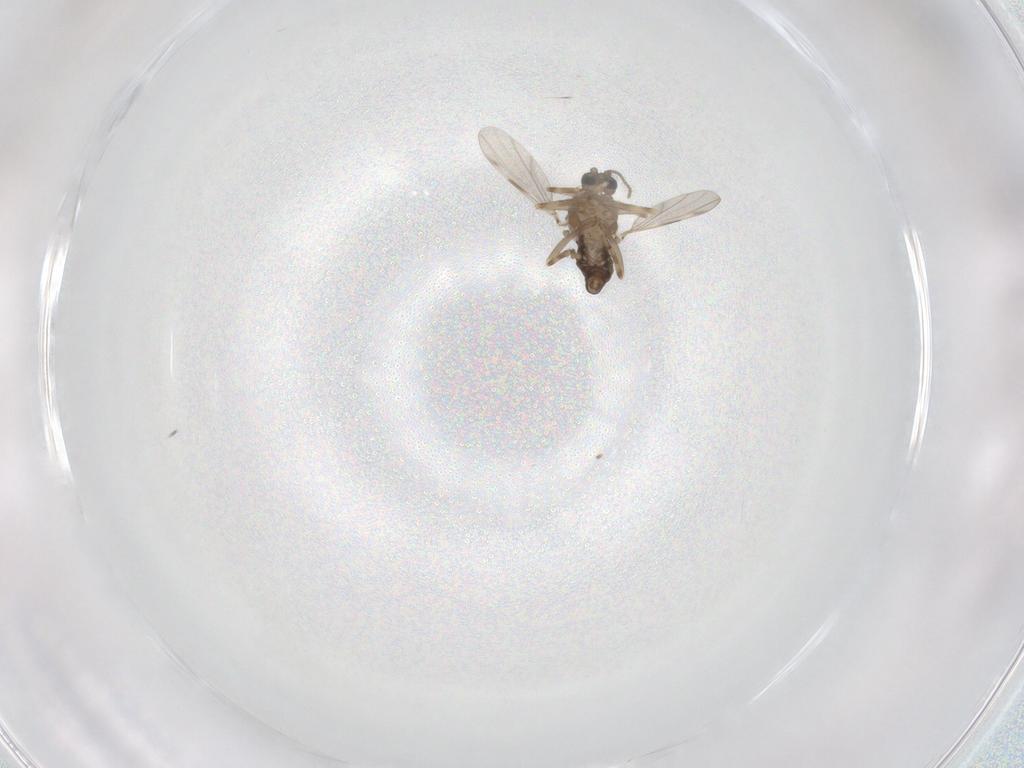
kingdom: Animalia
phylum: Arthropoda
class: Insecta
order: Diptera
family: Ceratopogonidae
